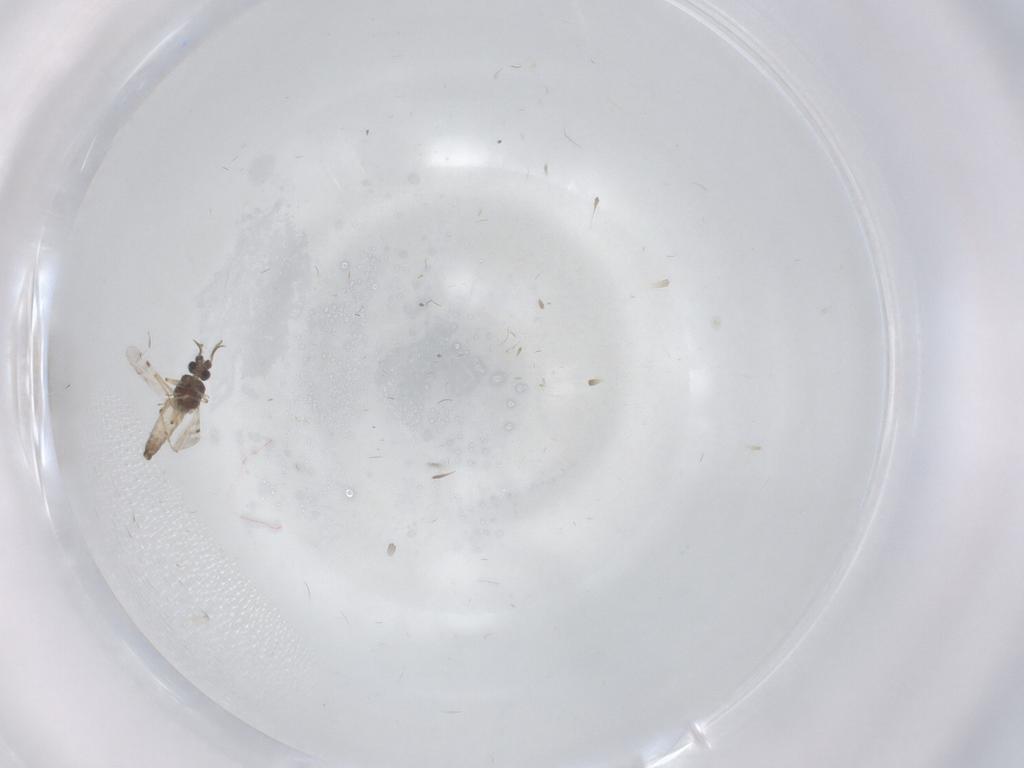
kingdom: Animalia
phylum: Arthropoda
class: Insecta
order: Diptera
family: Sciaridae
